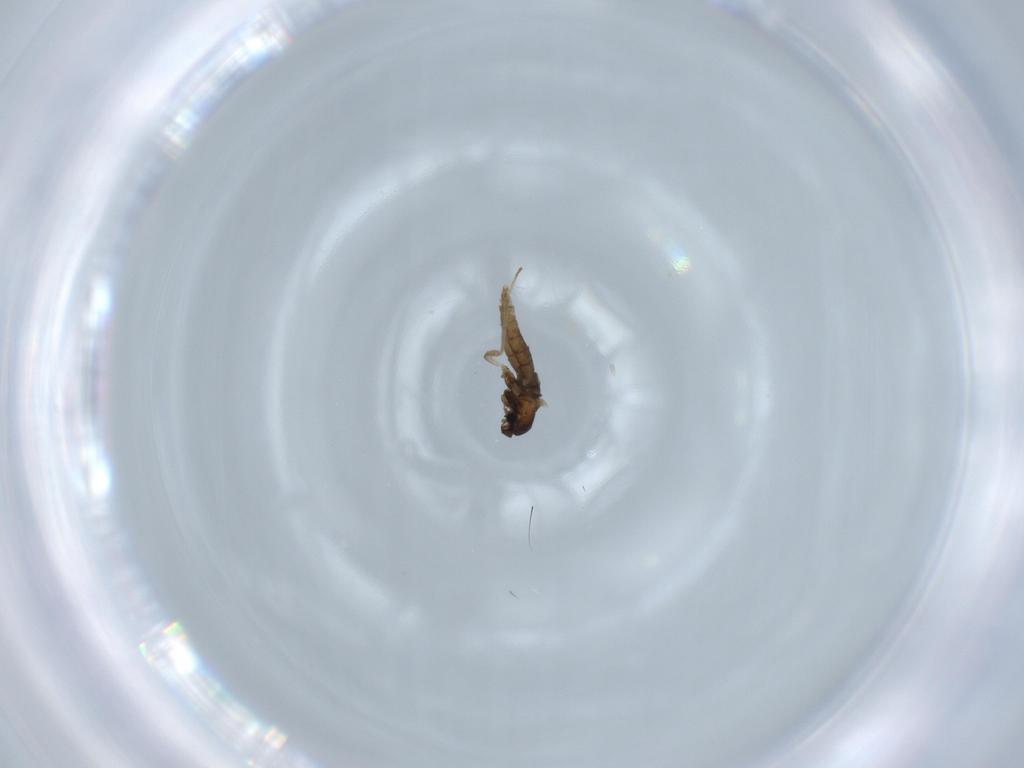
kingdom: Animalia
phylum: Arthropoda
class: Insecta
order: Diptera
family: Cecidomyiidae
